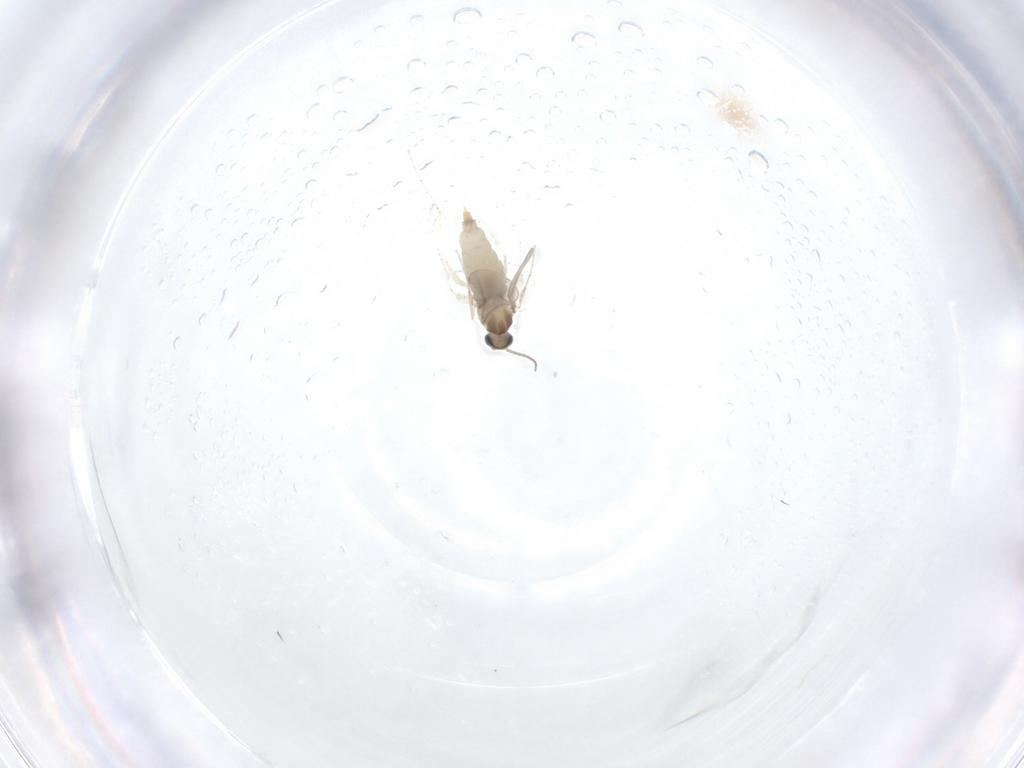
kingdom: Animalia
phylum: Arthropoda
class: Insecta
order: Diptera
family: Chironomidae
